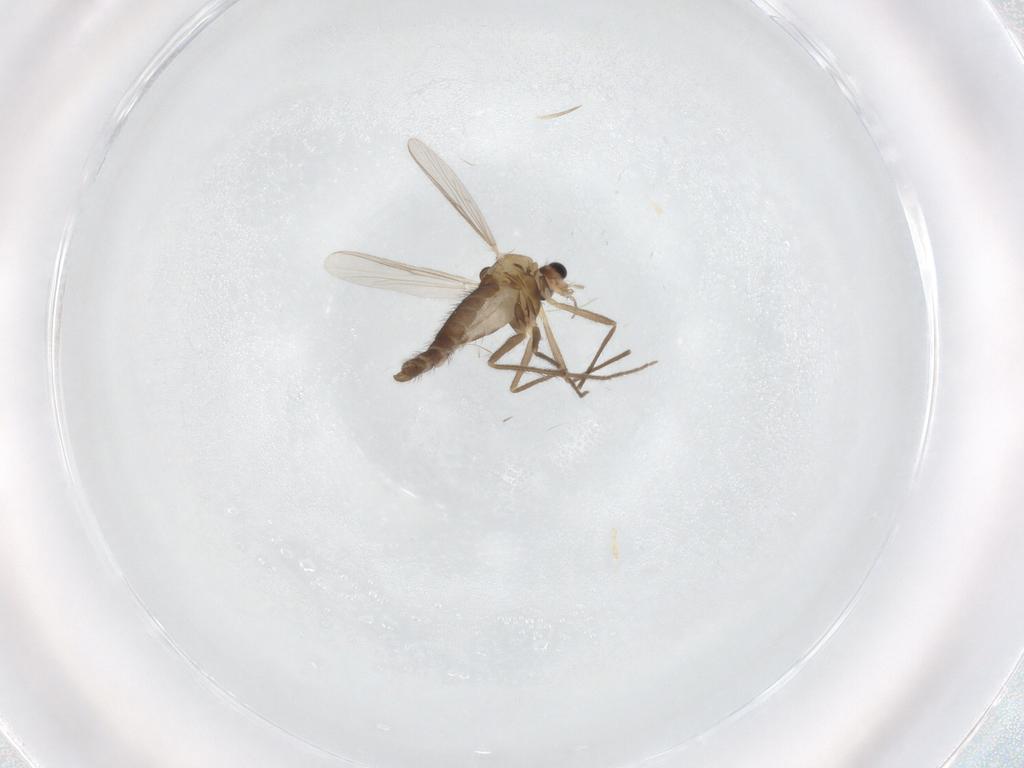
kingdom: Animalia
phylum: Arthropoda
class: Insecta
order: Diptera
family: Chironomidae
